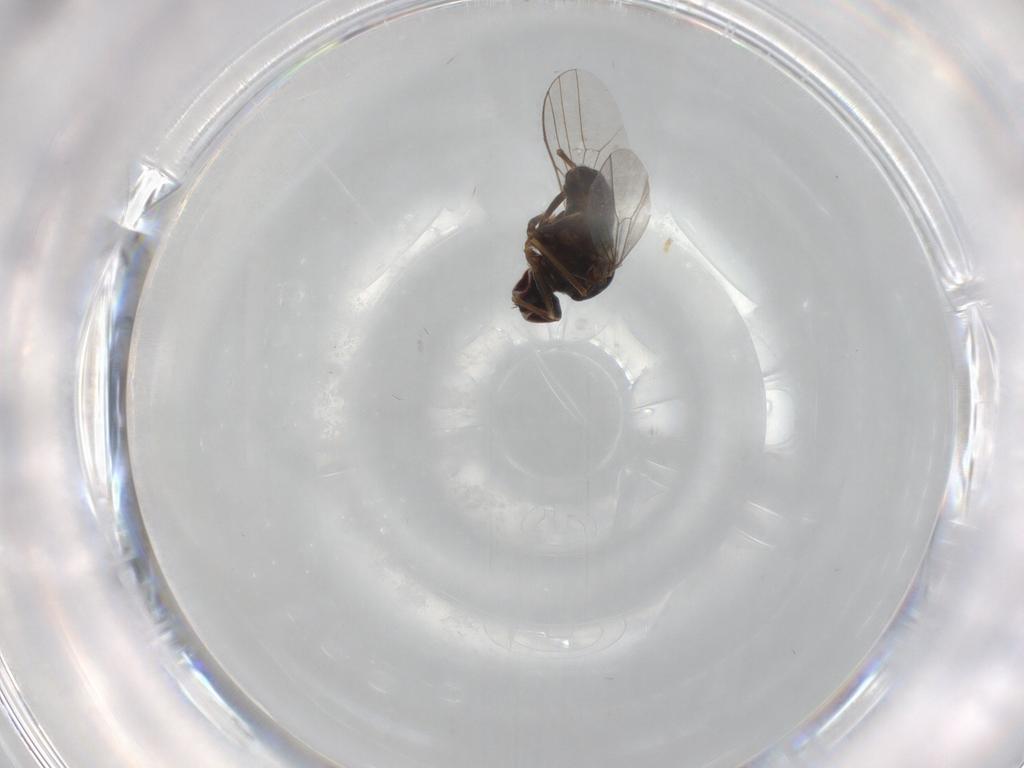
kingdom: Animalia
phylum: Arthropoda
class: Insecta
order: Diptera
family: Dolichopodidae
